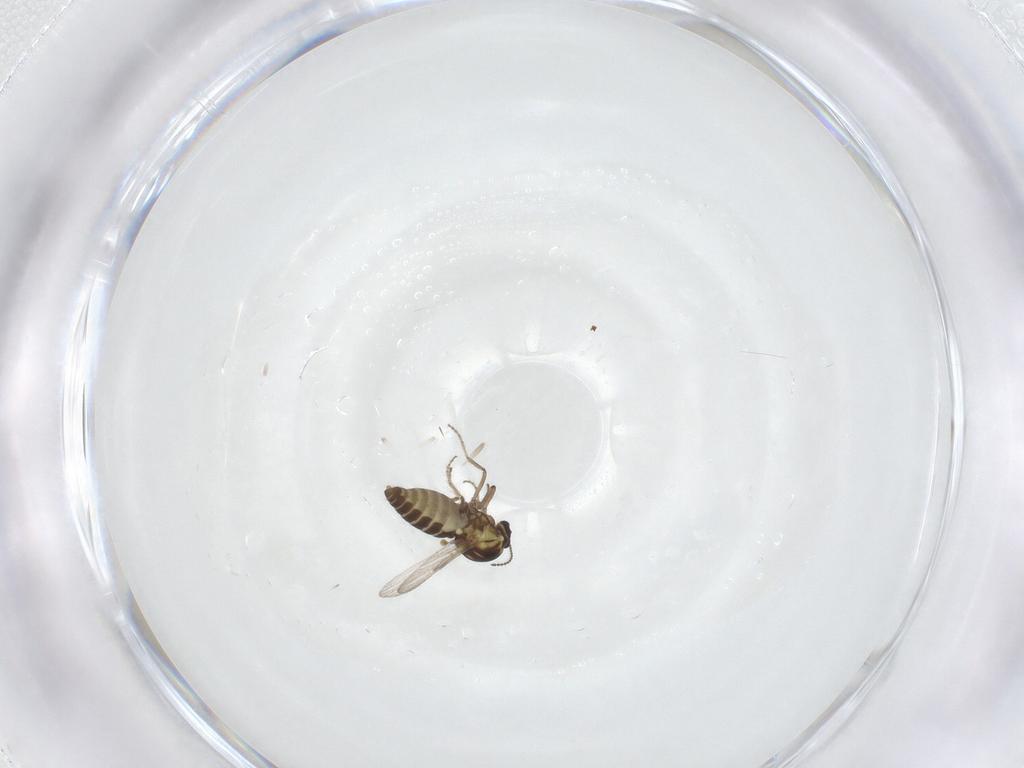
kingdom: Animalia
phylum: Arthropoda
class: Insecta
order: Diptera
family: Ceratopogonidae
